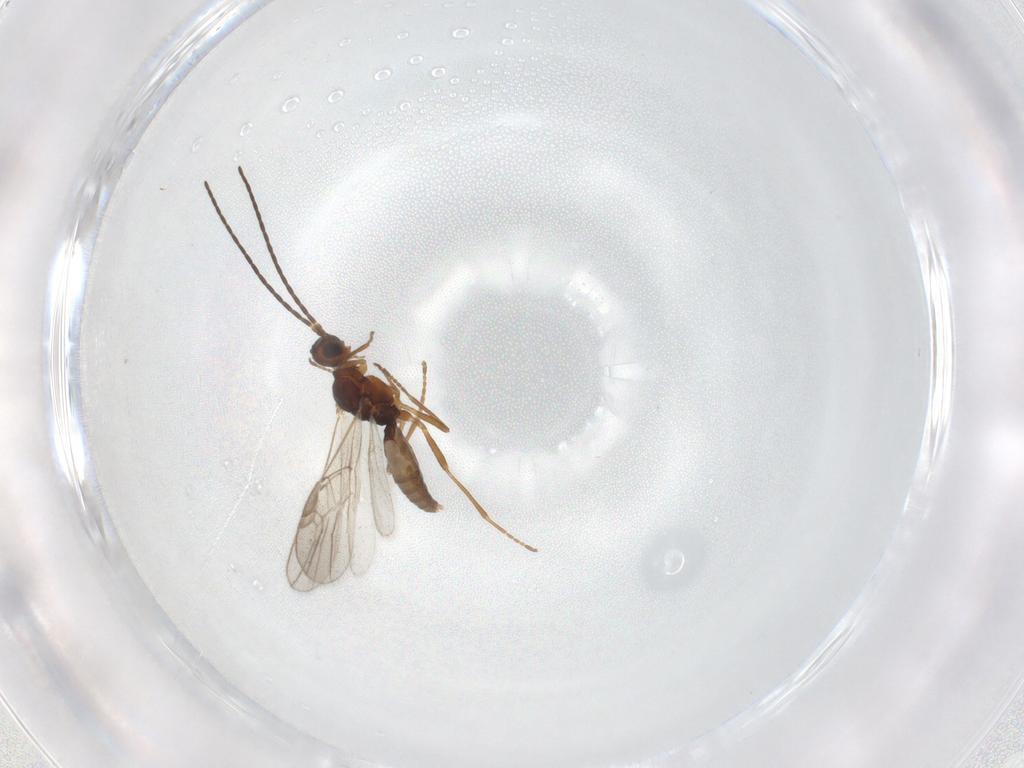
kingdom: Animalia
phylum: Arthropoda
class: Insecta
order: Hymenoptera
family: Braconidae
